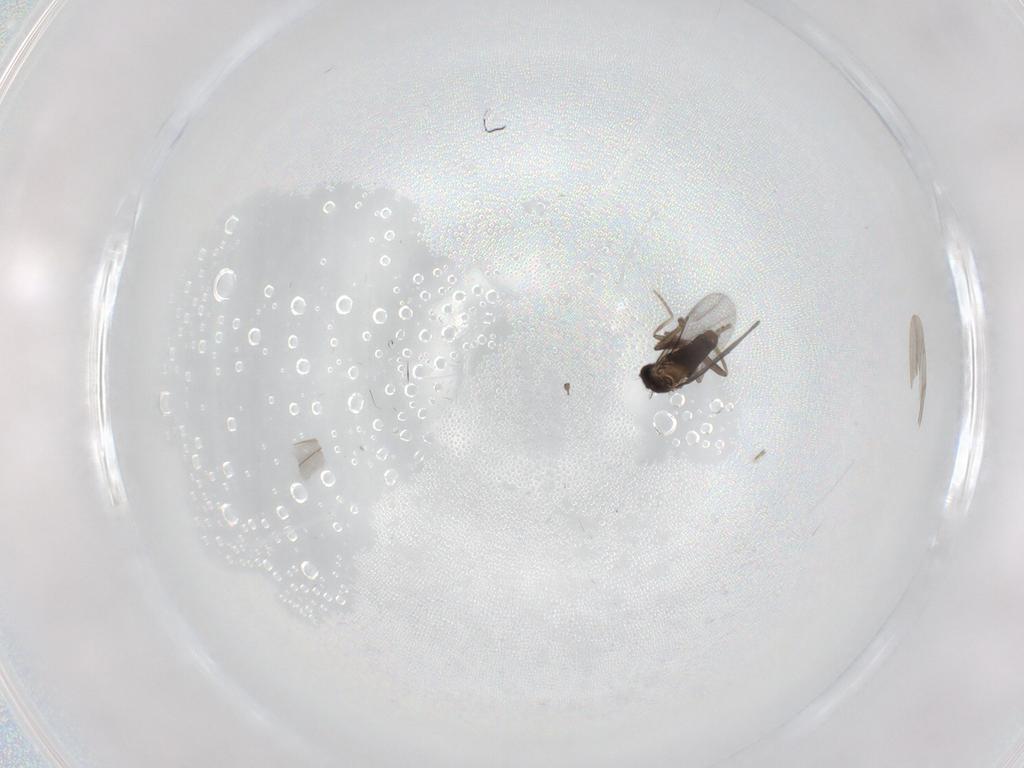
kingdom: Animalia
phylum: Arthropoda
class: Insecta
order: Diptera
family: Cecidomyiidae
